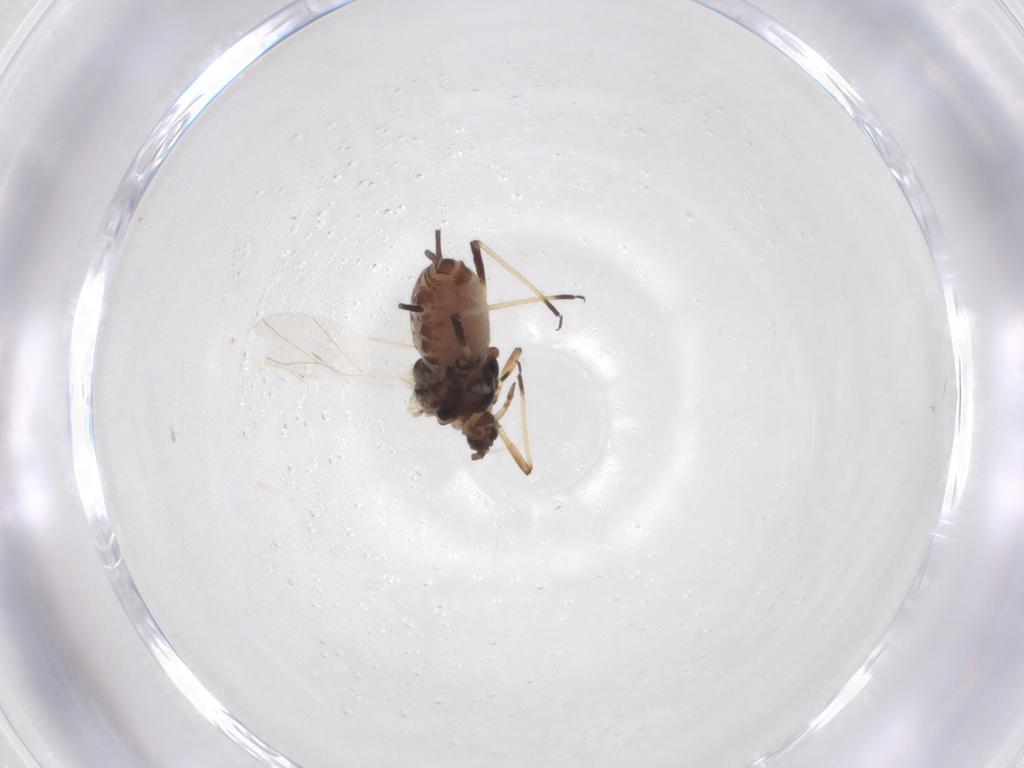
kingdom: Animalia
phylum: Arthropoda
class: Insecta
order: Hemiptera
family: Aphididae
